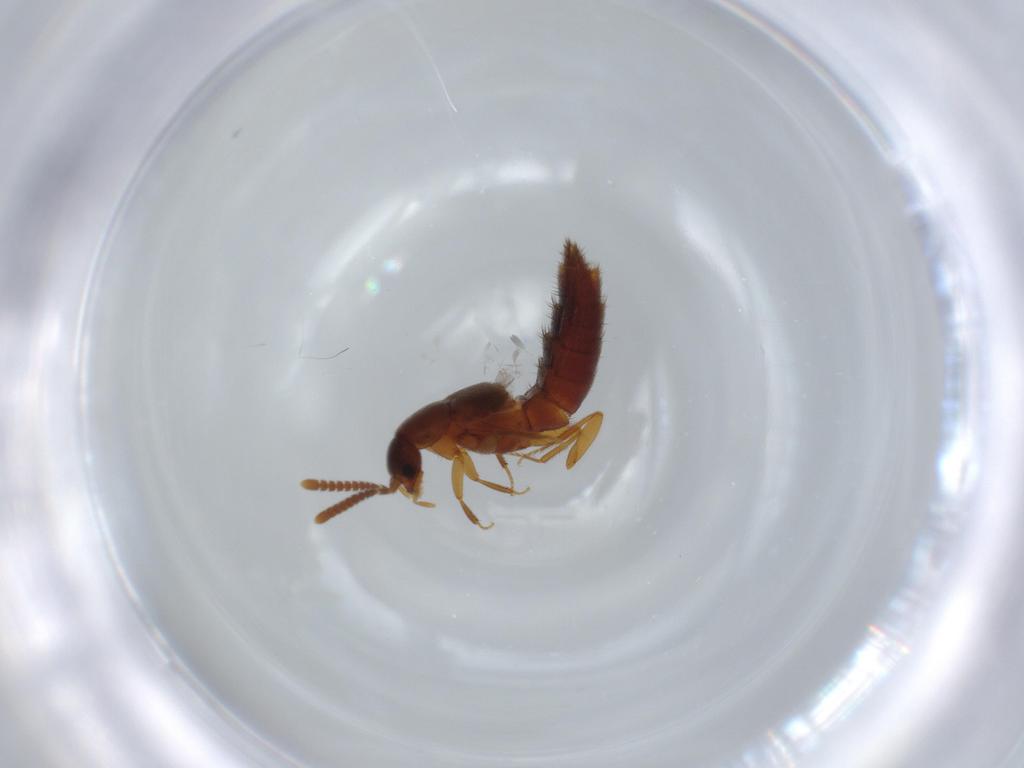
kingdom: Animalia
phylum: Arthropoda
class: Insecta
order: Coleoptera
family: Staphylinidae
